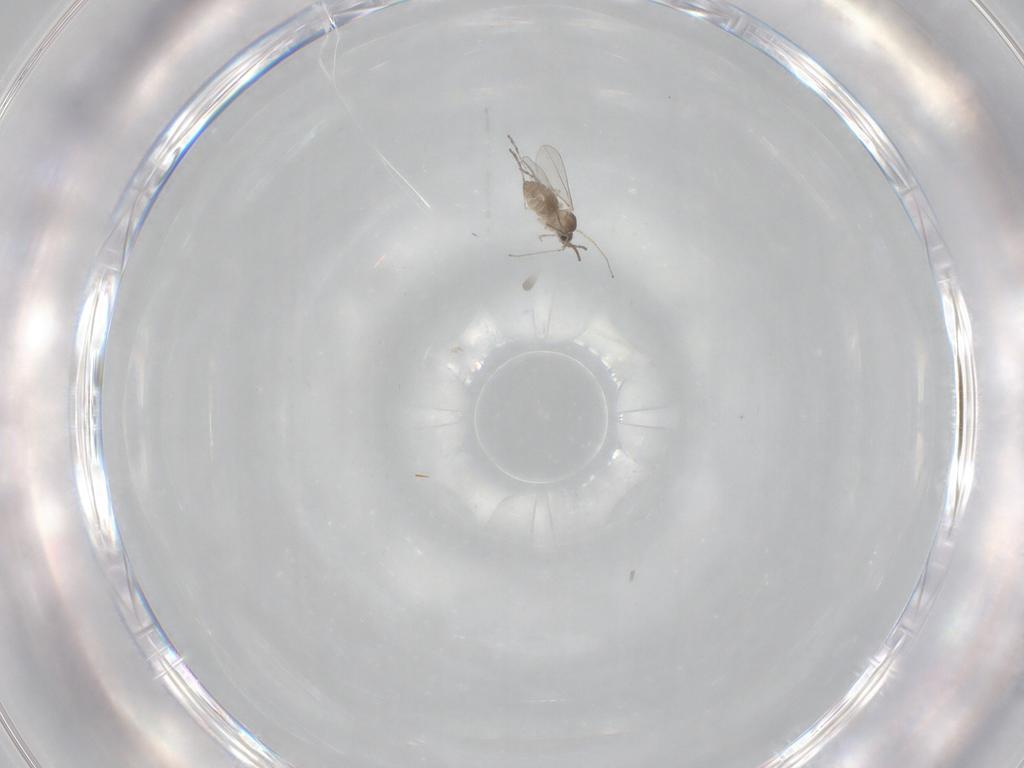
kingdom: Animalia
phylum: Arthropoda
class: Insecta
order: Diptera
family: Cecidomyiidae
